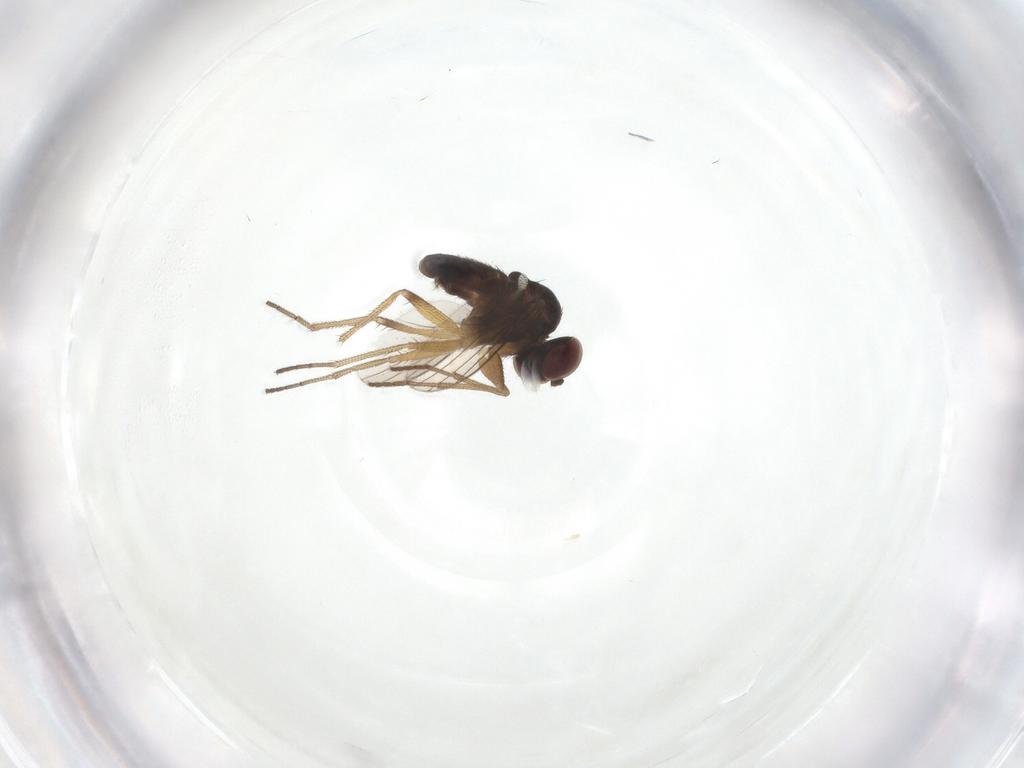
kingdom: Animalia
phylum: Arthropoda
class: Insecta
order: Diptera
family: Dolichopodidae
